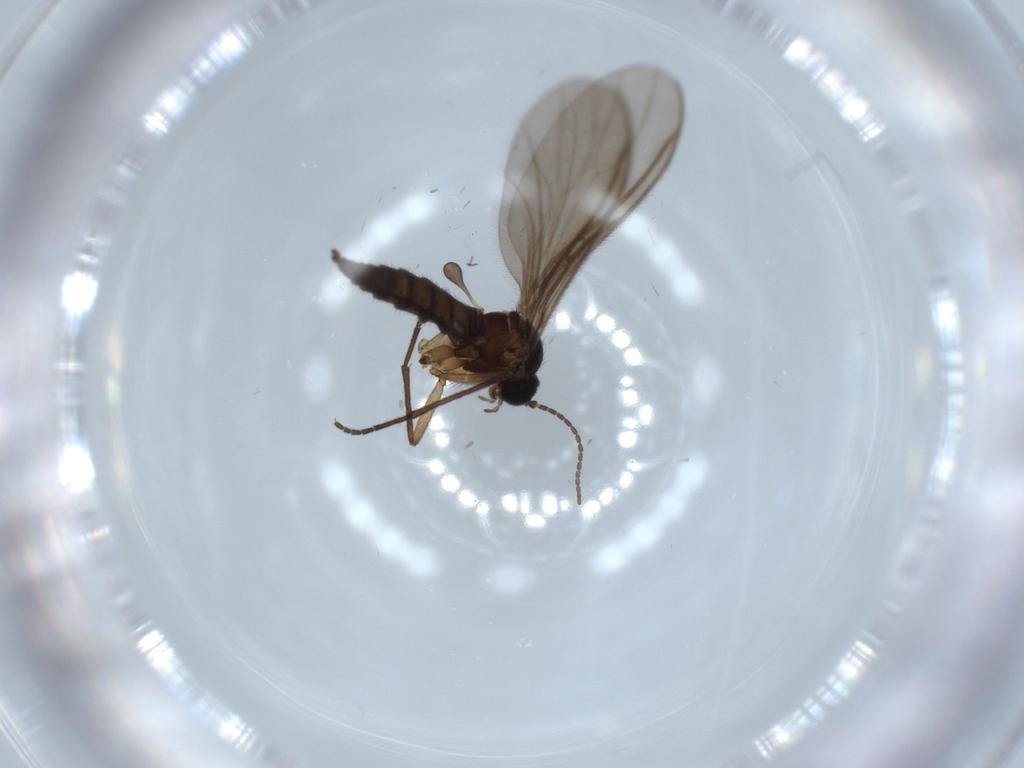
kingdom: Animalia
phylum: Arthropoda
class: Insecta
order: Diptera
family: Sciaridae
